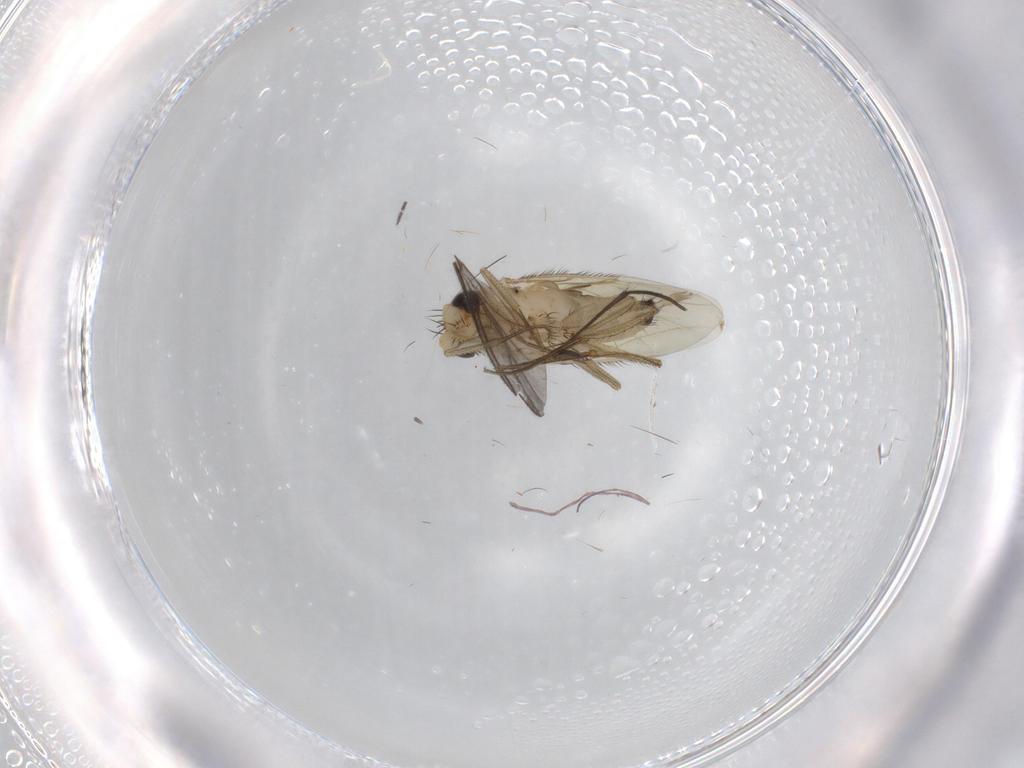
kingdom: Animalia
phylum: Arthropoda
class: Insecta
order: Diptera
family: Phoridae
